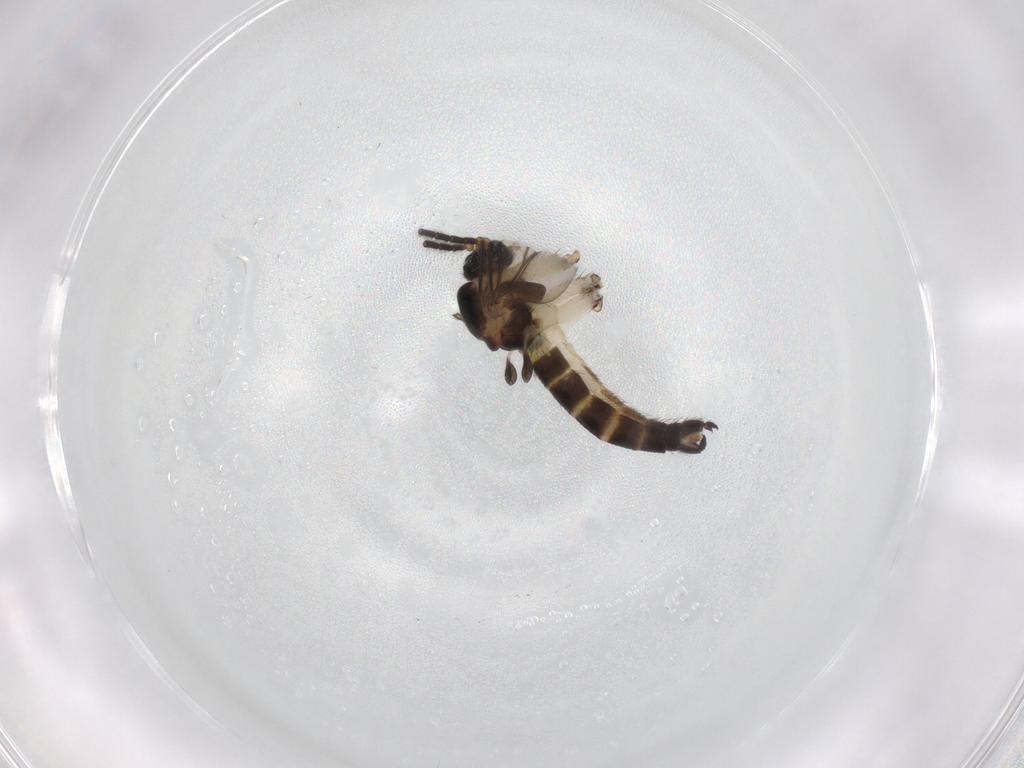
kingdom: Animalia
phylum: Arthropoda
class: Insecta
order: Diptera
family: Sciaridae
